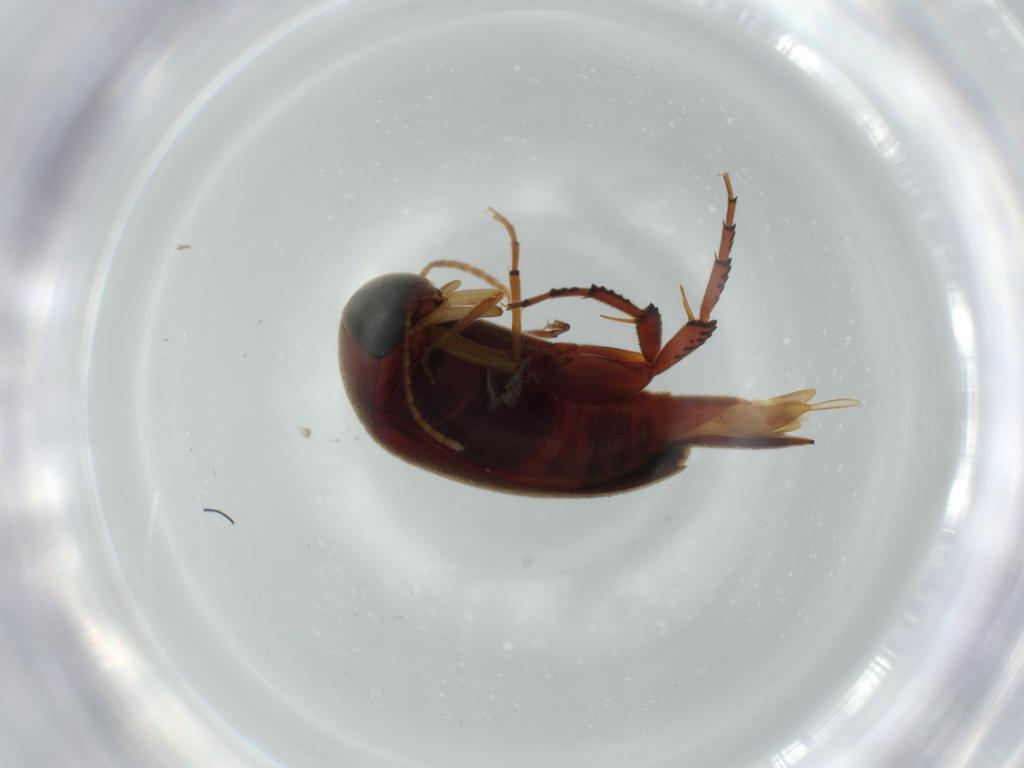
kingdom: Animalia
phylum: Arthropoda
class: Insecta
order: Coleoptera
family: Mordellidae
